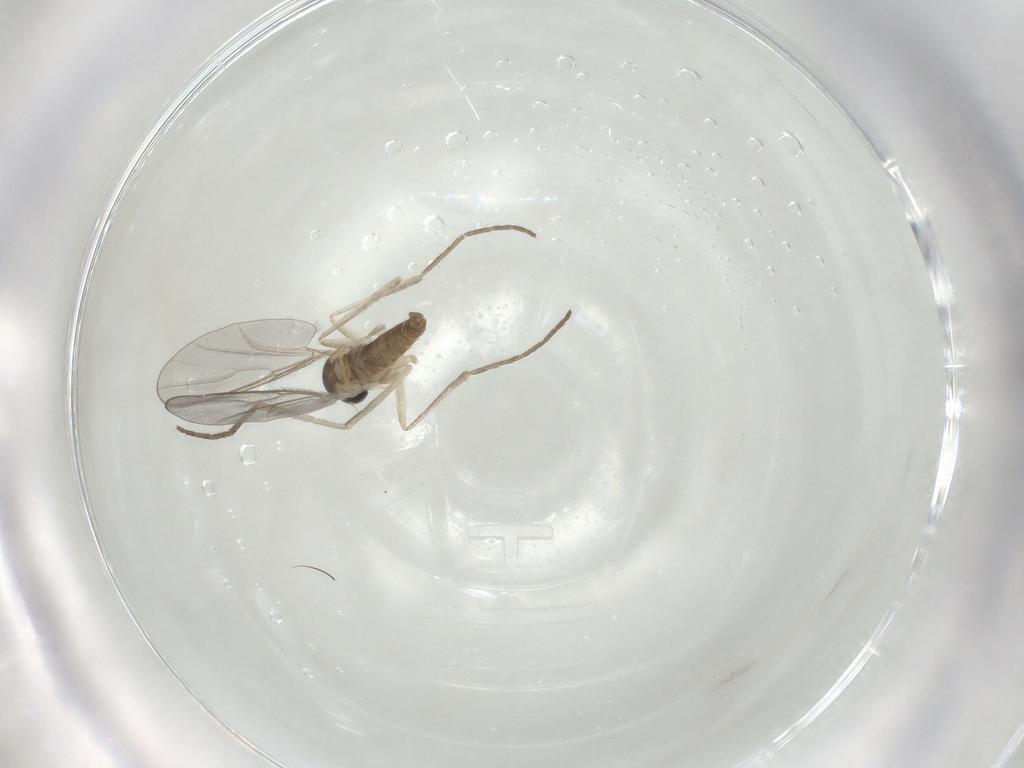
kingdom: Animalia
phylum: Arthropoda
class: Insecta
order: Diptera
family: Cecidomyiidae
